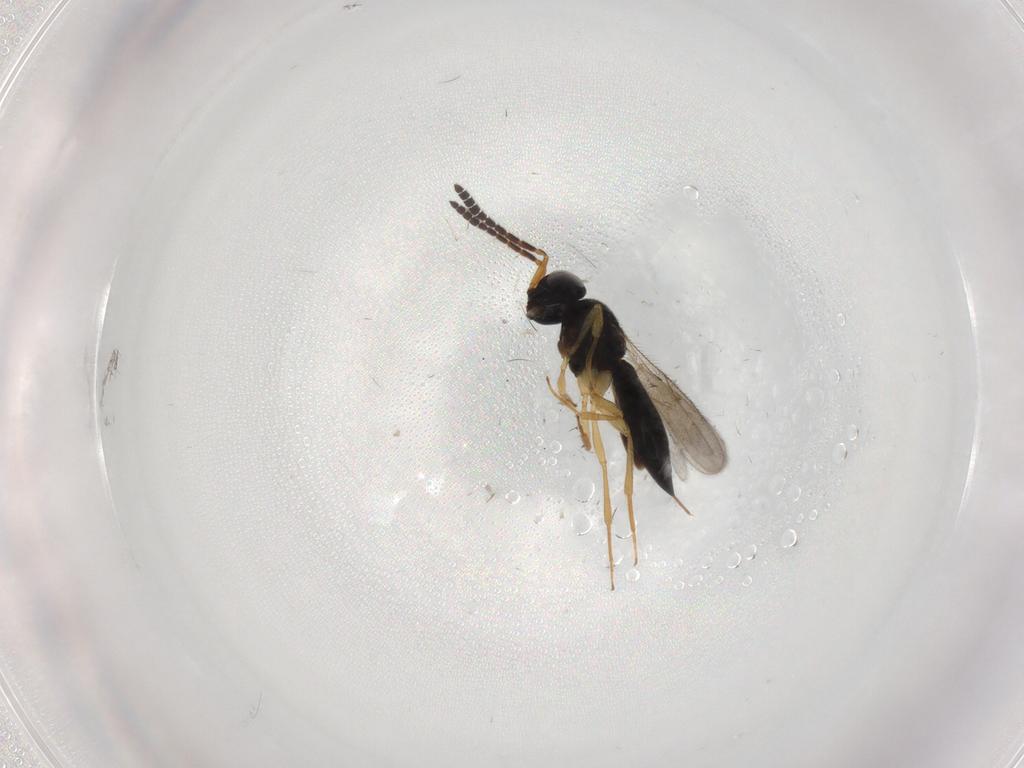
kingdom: Animalia
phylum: Arthropoda
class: Insecta
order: Hymenoptera
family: Scelionidae
